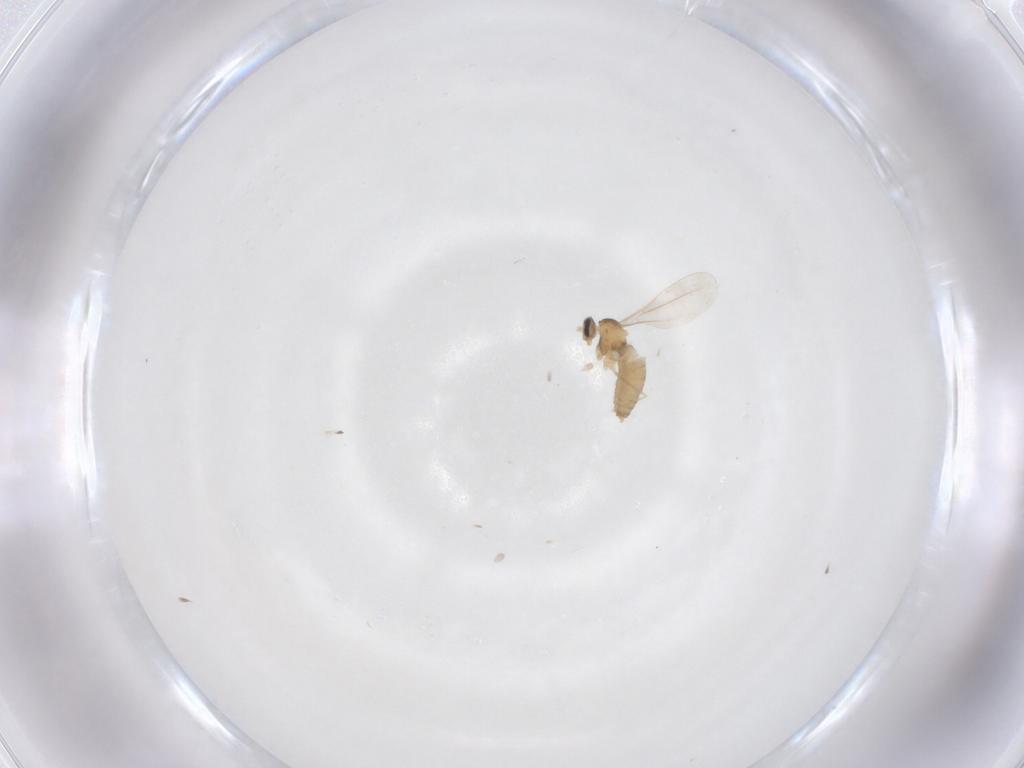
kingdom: Animalia
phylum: Arthropoda
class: Insecta
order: Diptera
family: Cecidomyiidae
